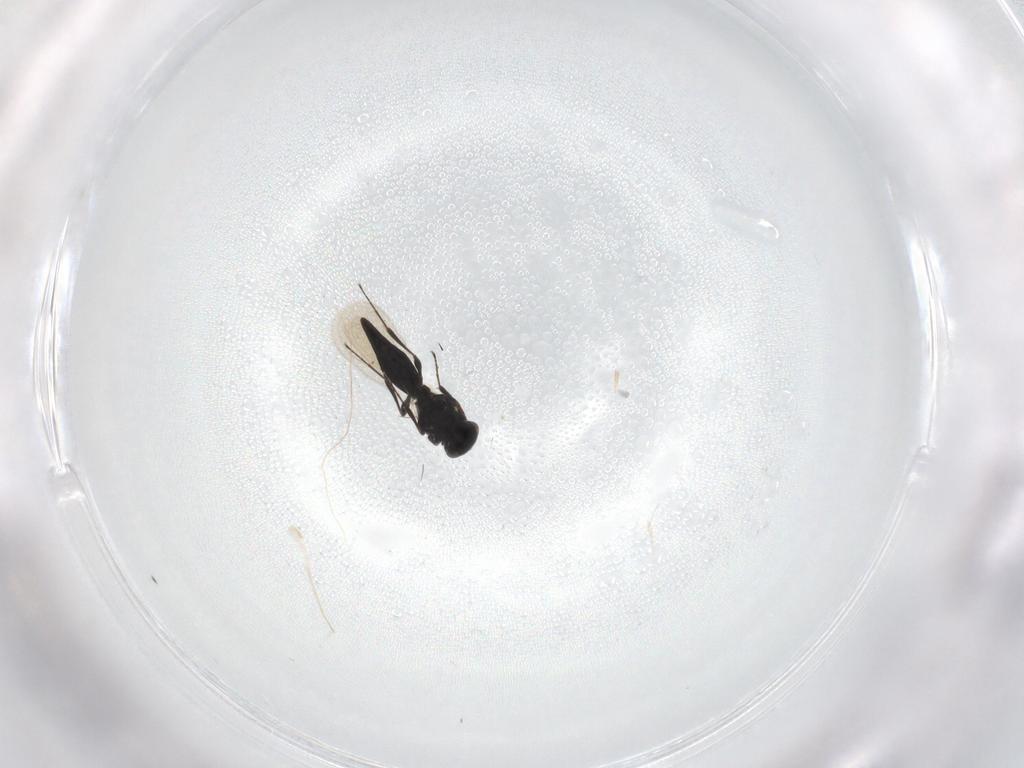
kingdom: Animalia
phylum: Arthropoda
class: Insecta
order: Hymenoptera
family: Platygastridae
